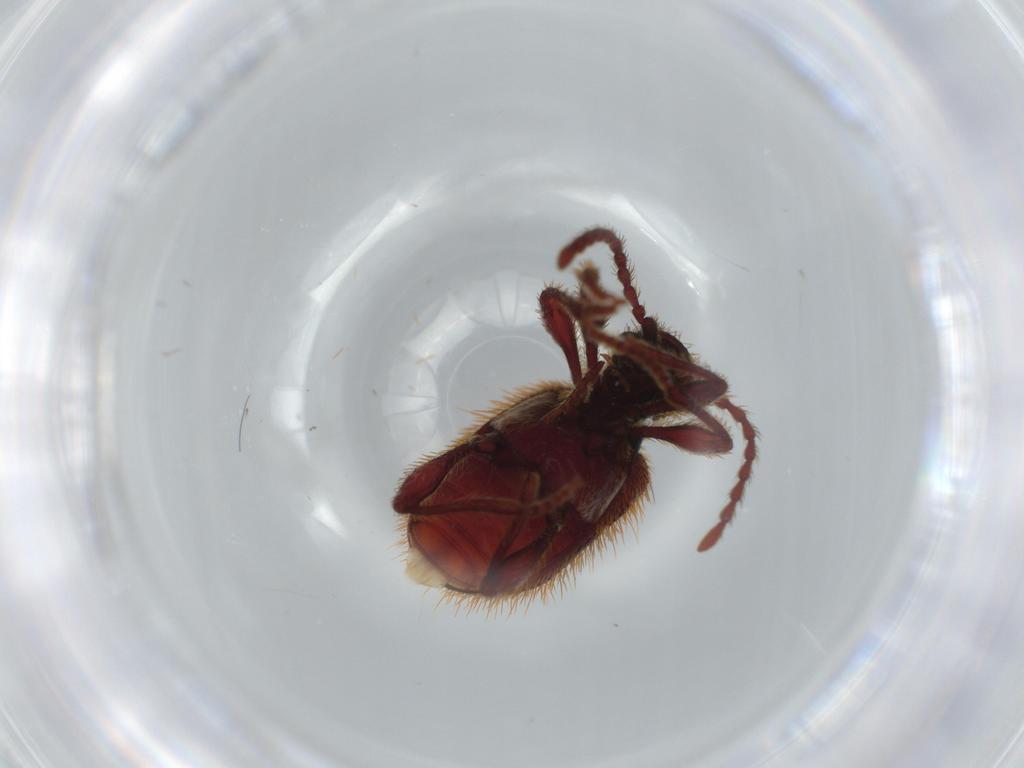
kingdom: Animalia
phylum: Arthropoda
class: Insecta
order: Coleoptera
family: Ptinidae
